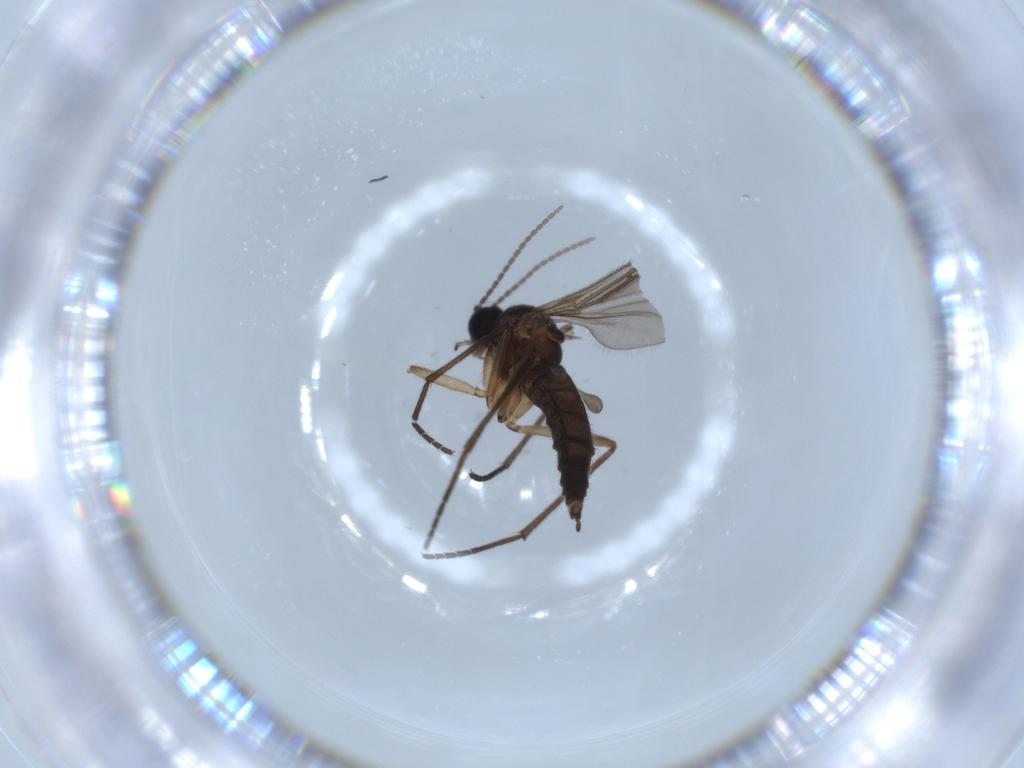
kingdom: Animalia
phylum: Arthropoda
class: Insecta
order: Diptera
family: Sciaridae
